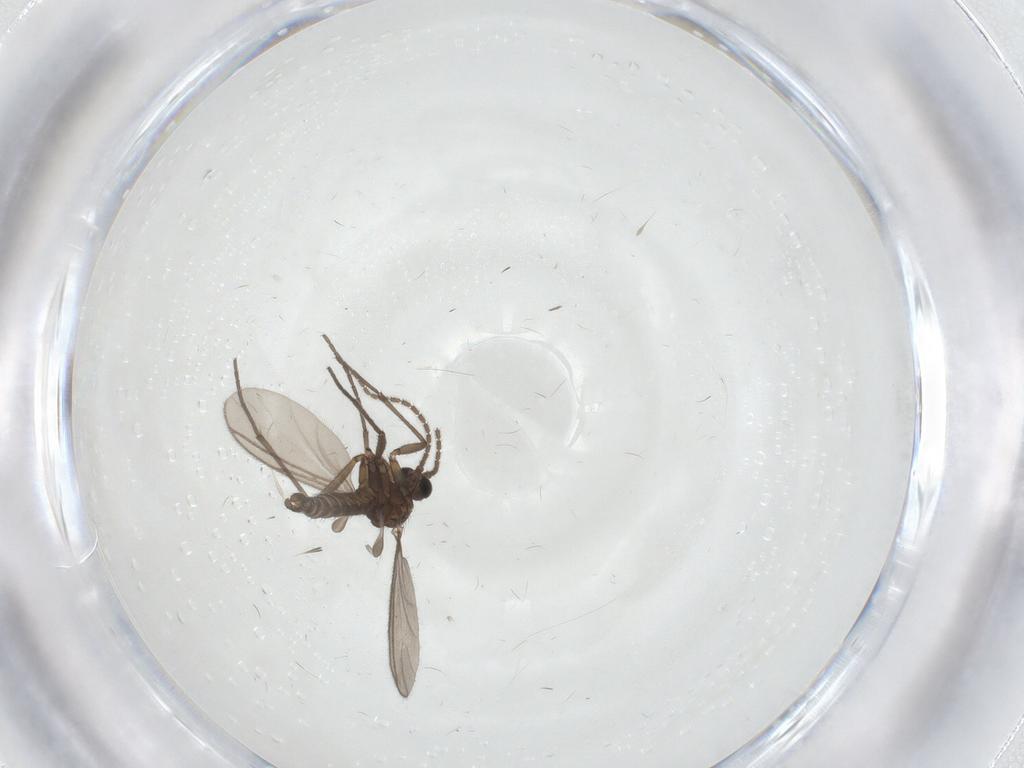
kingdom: Animalia
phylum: Arthropoda
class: Insecta
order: Diptera
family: Sciaridae
